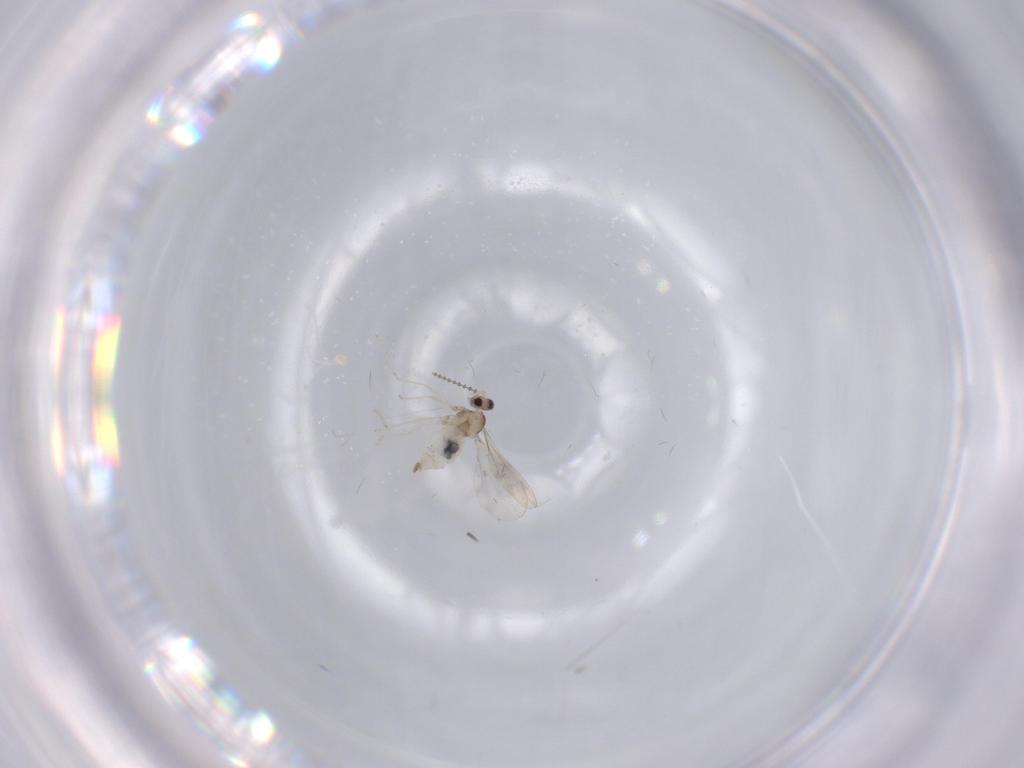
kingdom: Animalia
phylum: Arthropoda
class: Insecta
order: Diptera
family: Cecidomyiidae
